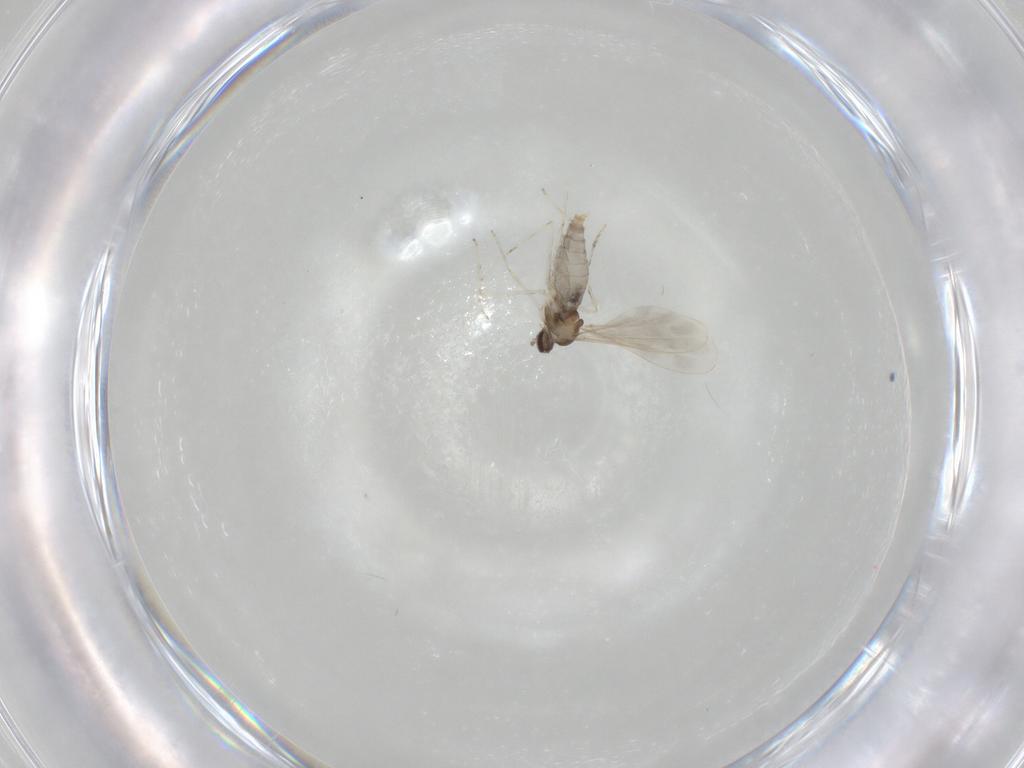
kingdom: Animalia
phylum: Arthropoda
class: Insecta
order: Diptera
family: Cecidomyiidae
